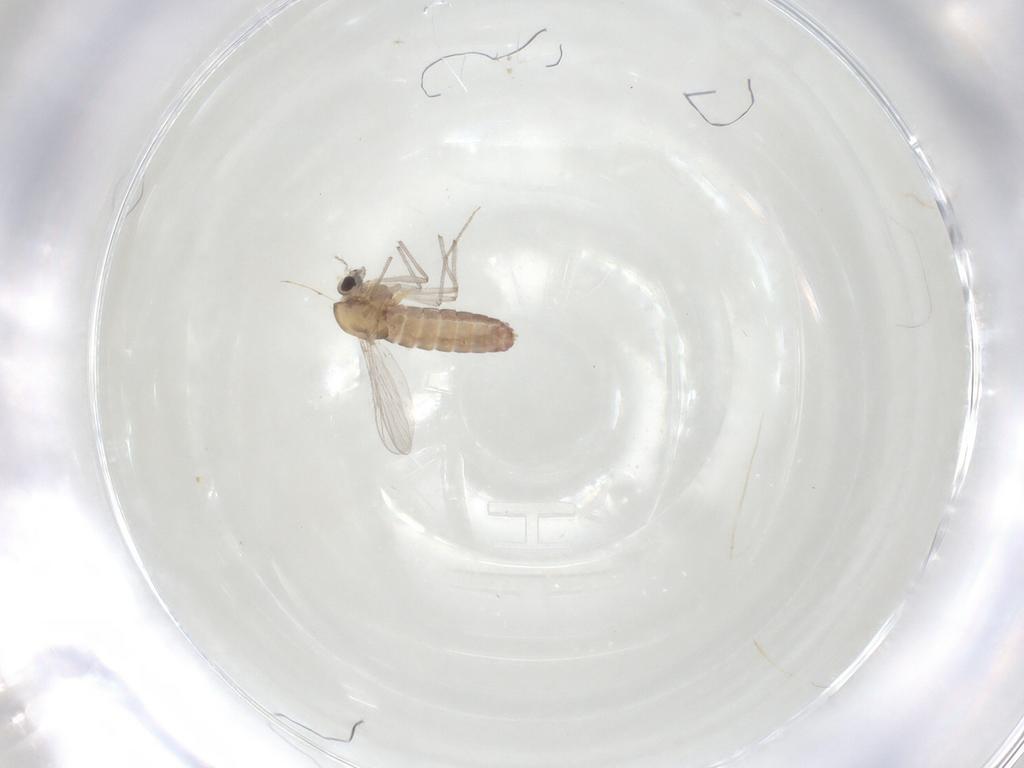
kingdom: Animalia
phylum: Arthropoda
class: Insecta
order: Diptera
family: Chironomidae
